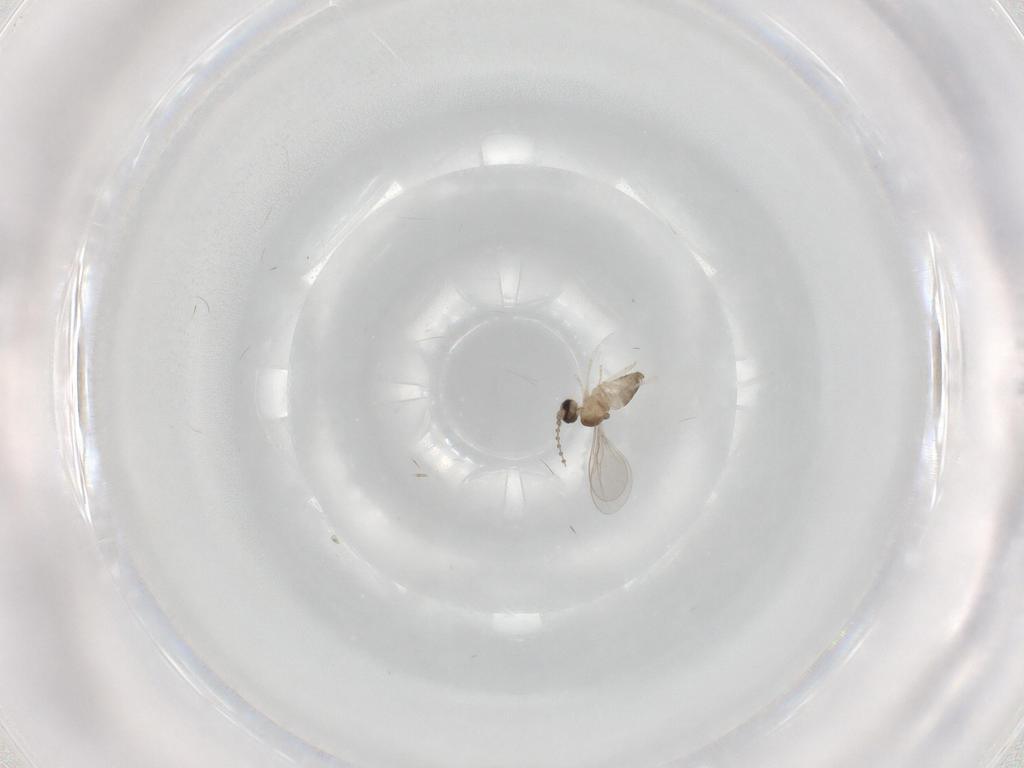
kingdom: Animalia
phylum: Arthropoda
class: Insecta
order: Diptera
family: Cecidomyiidae
